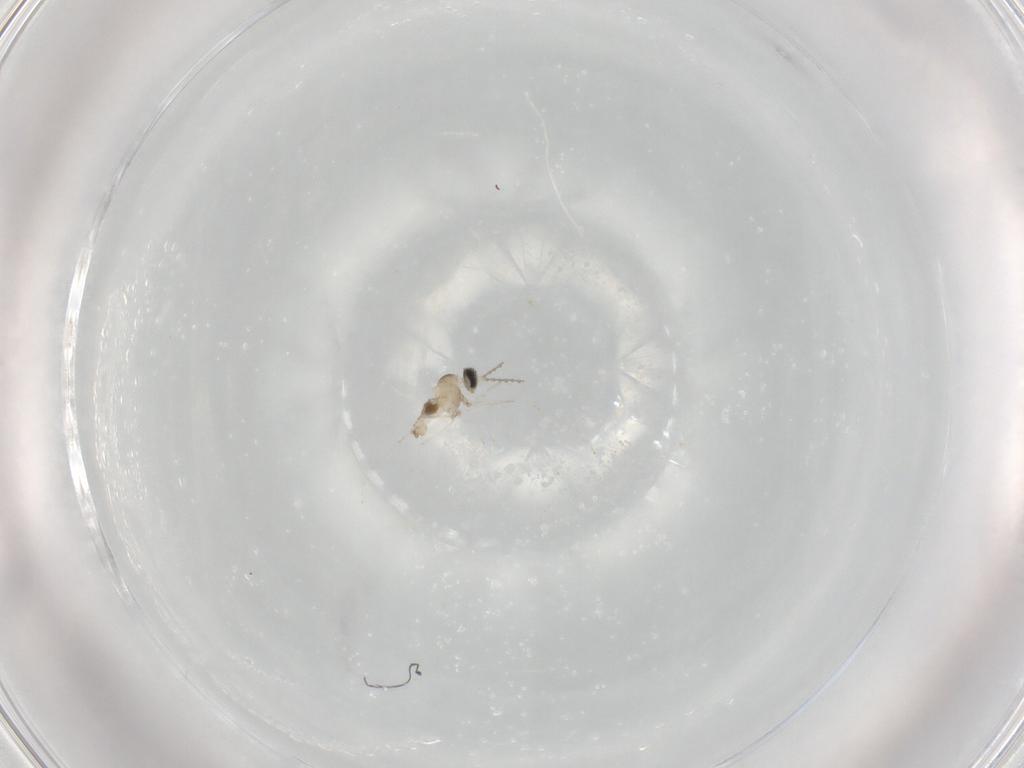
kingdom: Animalia
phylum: Arthropoda
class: Insecta
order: Diptera
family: Cecidomyiidae
